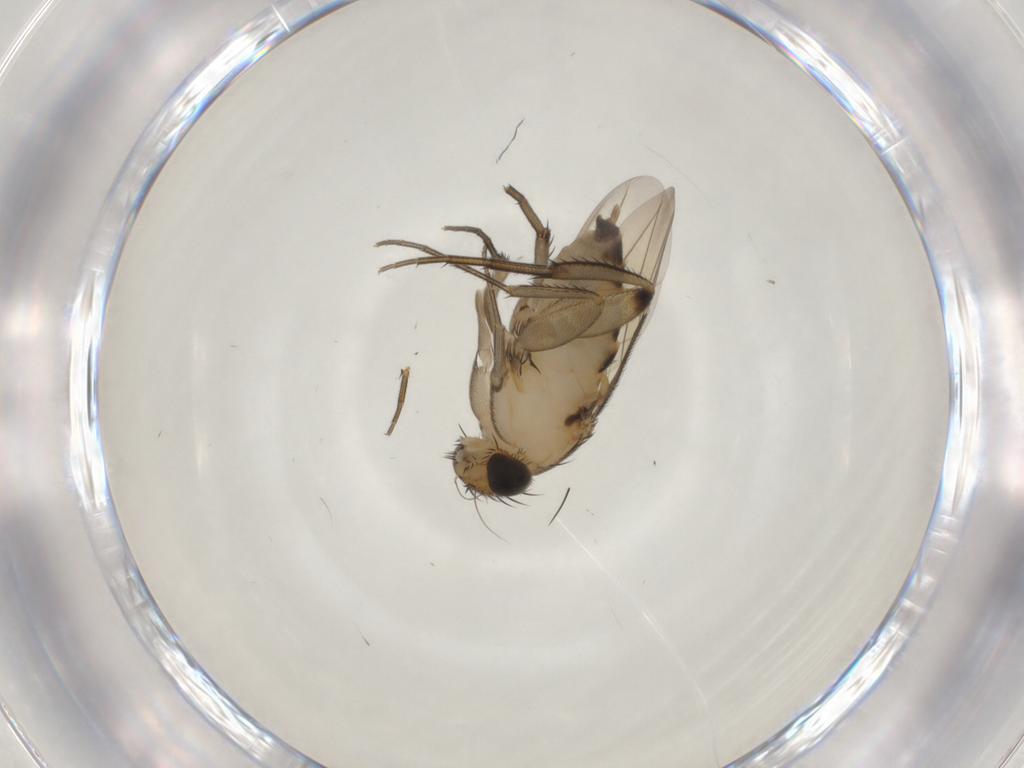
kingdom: Animalia
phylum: Arthropoda
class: Insecta
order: Diptera
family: Phoridae
